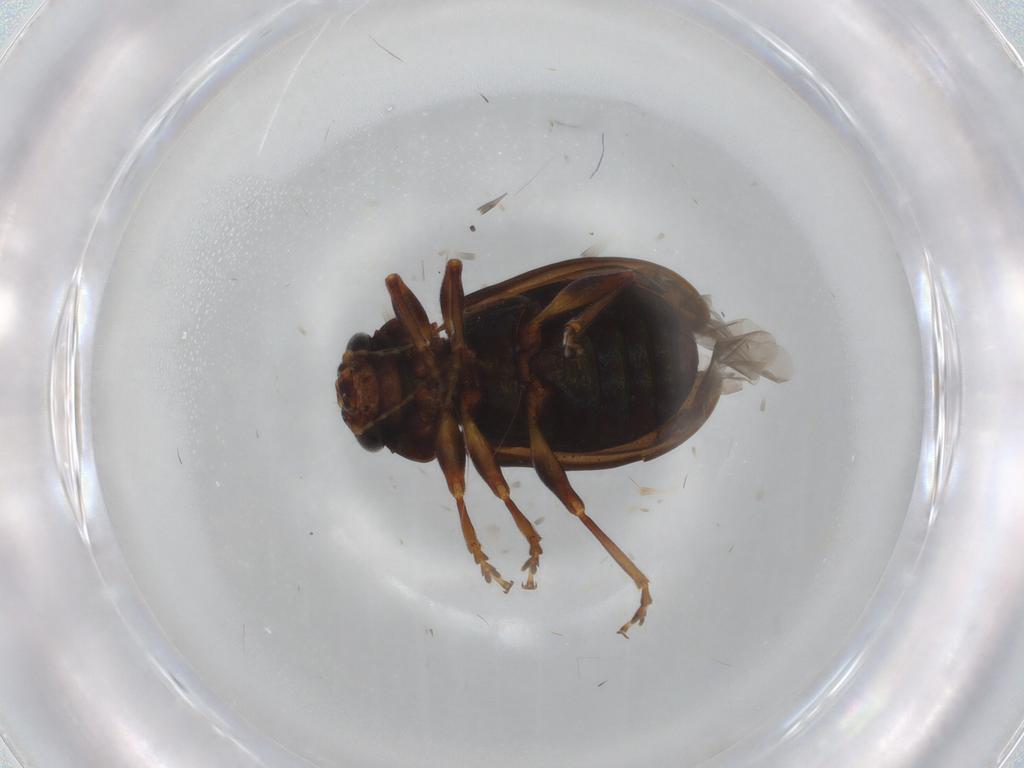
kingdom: Animalia
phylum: Arthropoda
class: Insecta
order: Coleoptera
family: Chrysomelidae
